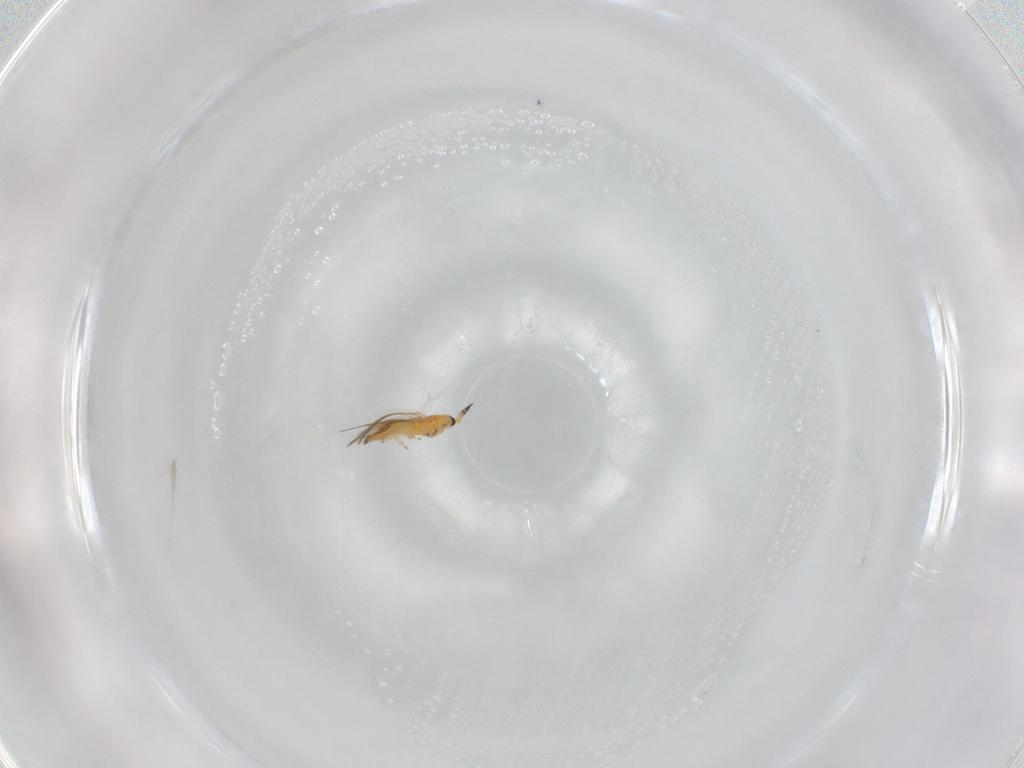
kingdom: Animalia
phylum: Arthropoda
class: Insecta
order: Thysanoptera
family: Thripidae
